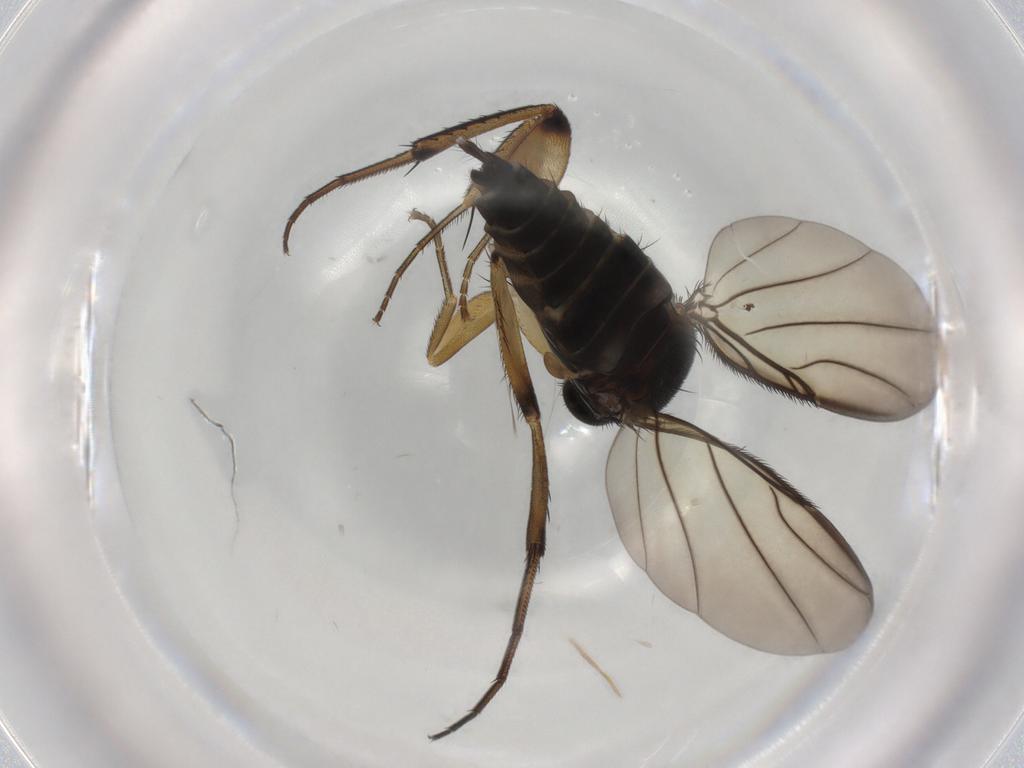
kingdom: Animalia
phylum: Arthropoda
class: Insecta
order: Diptera
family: Phoridae
